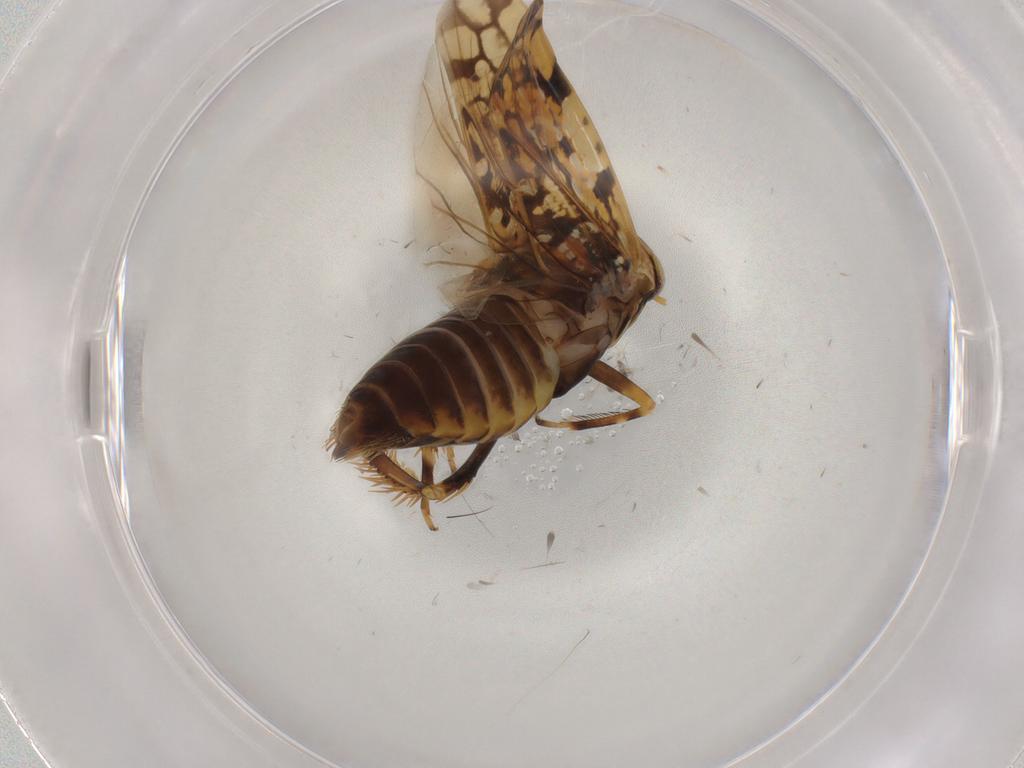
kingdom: Animalia
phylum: Arthropoda
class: Insecta
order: Hemiptera
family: Cicadellidae
